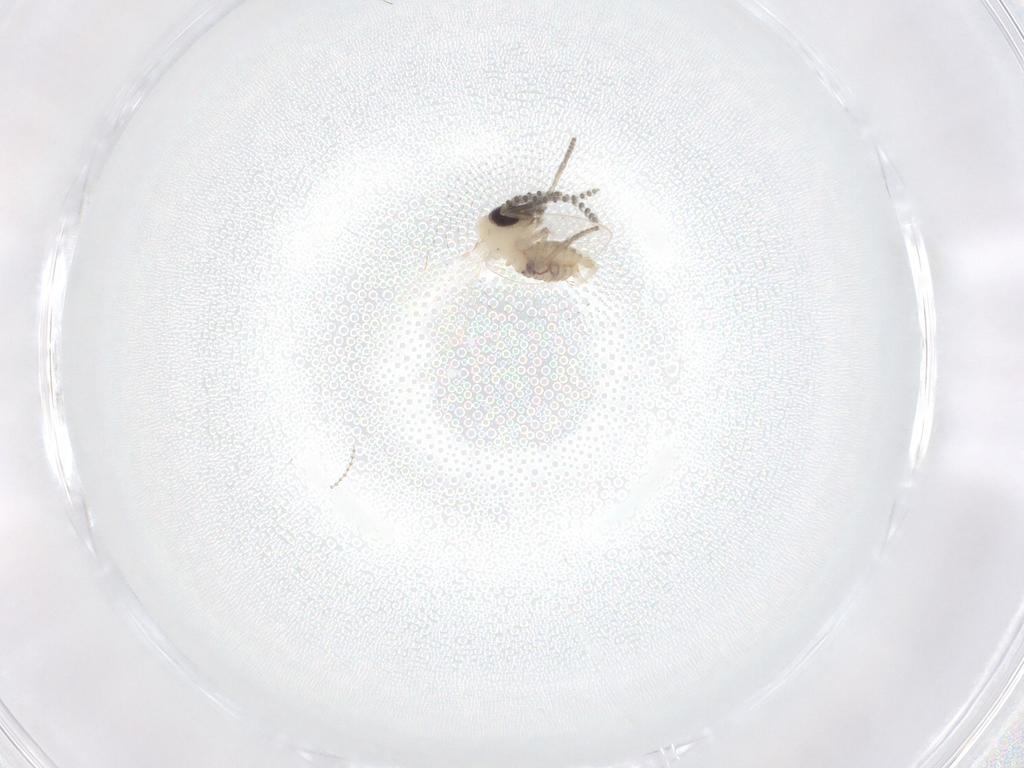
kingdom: Animalia
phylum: Arthropoda
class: Insecta
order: Diptera
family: Psychodidae
